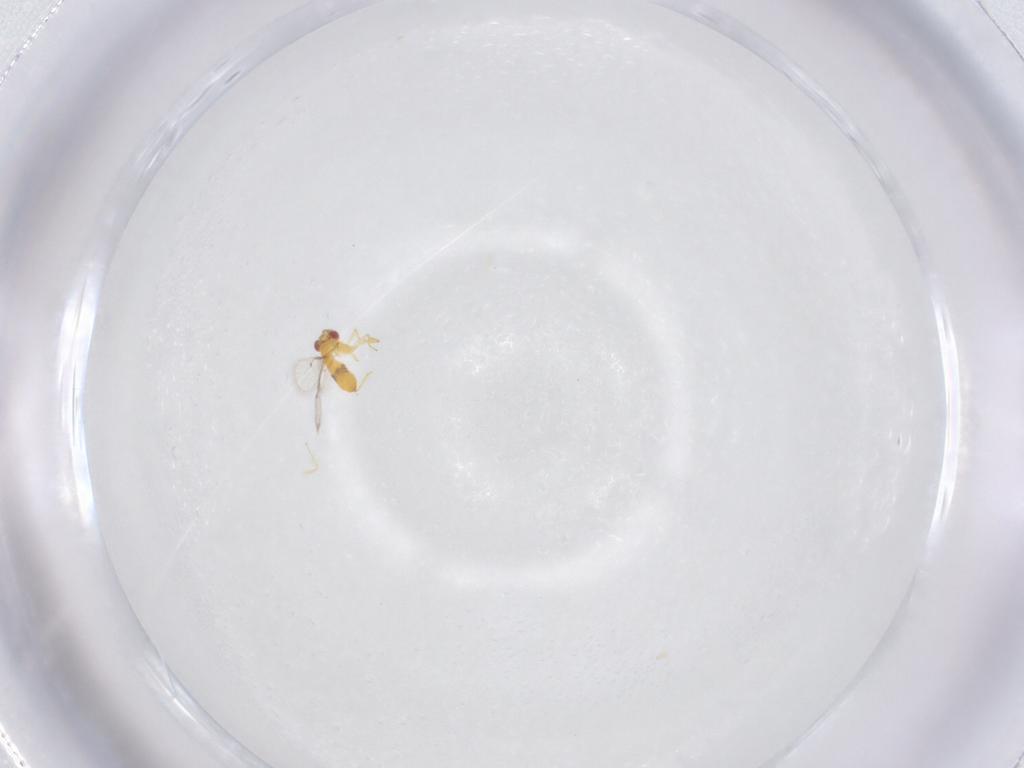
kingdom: Animalia
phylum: Arthropoda
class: Insecta
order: Hymenoptera
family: Trichogrammatidae
